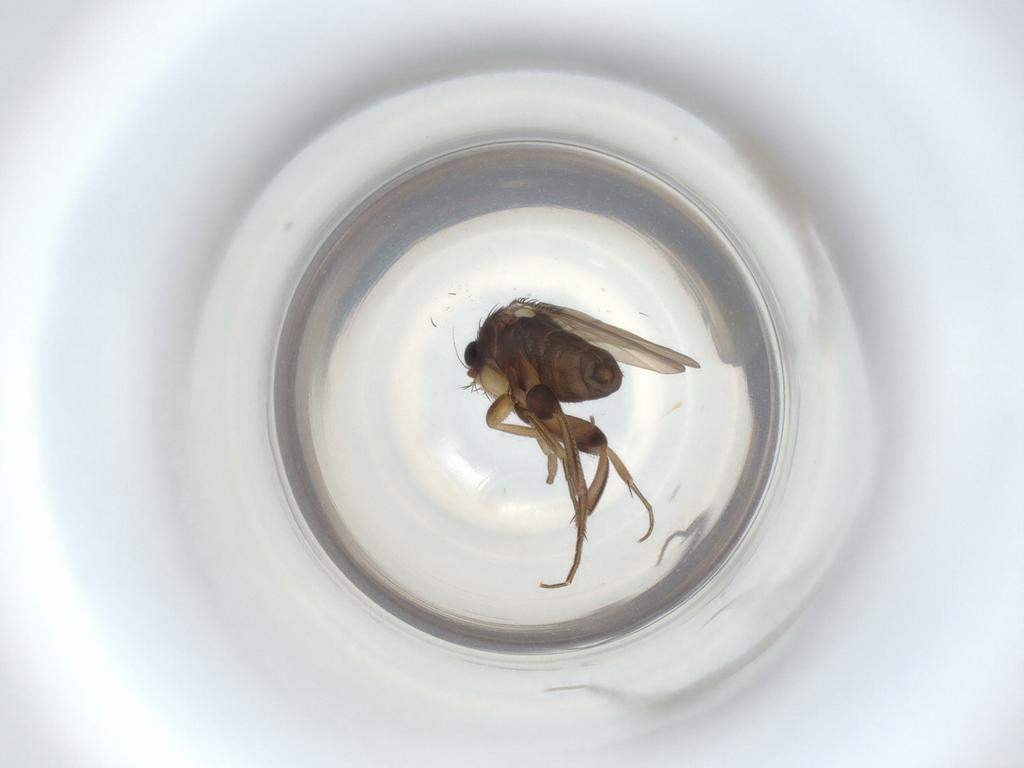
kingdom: Animalia
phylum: Arthropoda
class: Insecta
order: Diptera
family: Phoridae
